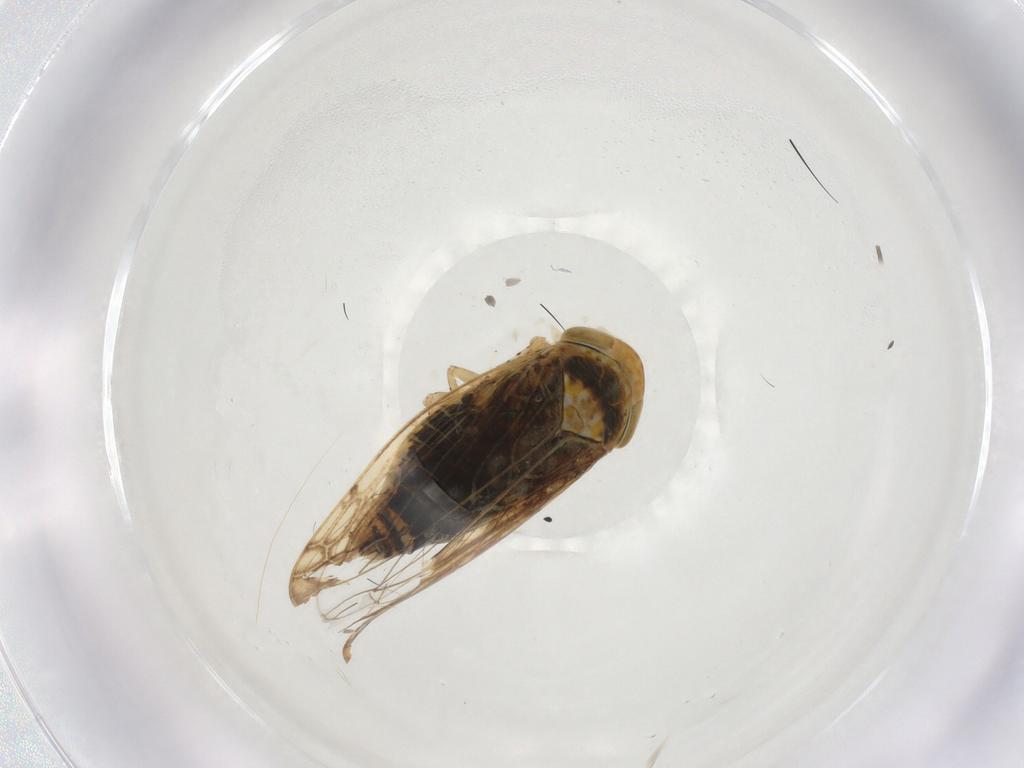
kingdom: Animalia
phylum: Arthropoda
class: Insecta
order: Hemiptera
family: Cicadellidae
